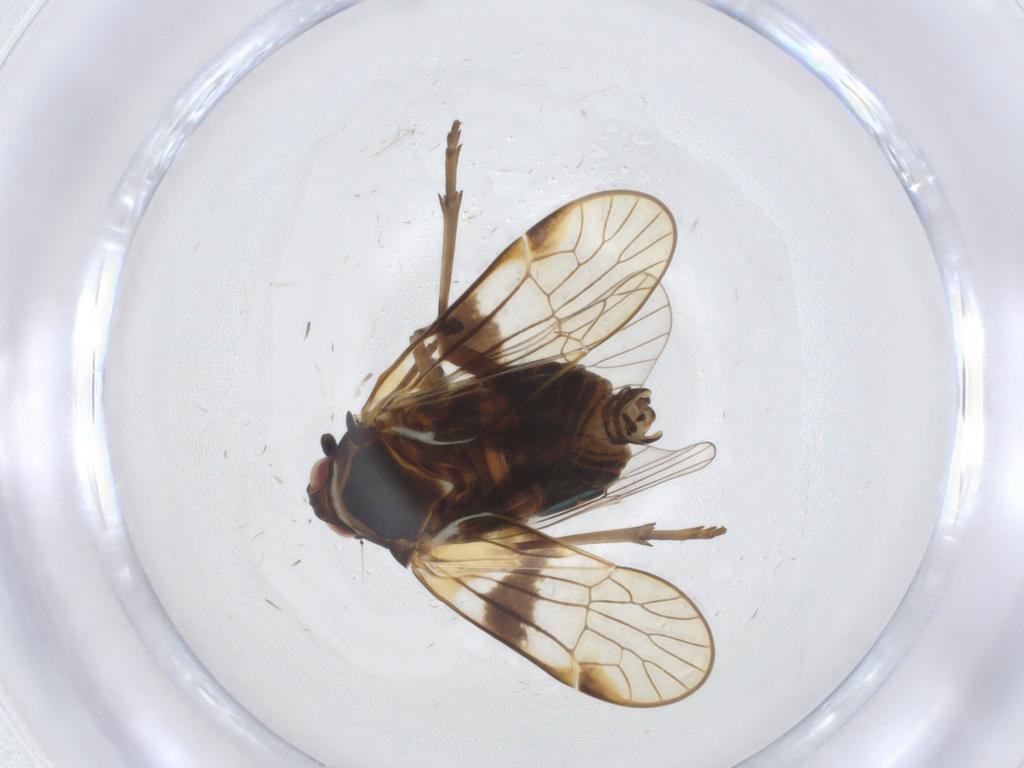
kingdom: Animalia
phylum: Arthropoda
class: Insecta
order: Hemiptera
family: Kinnaridae
